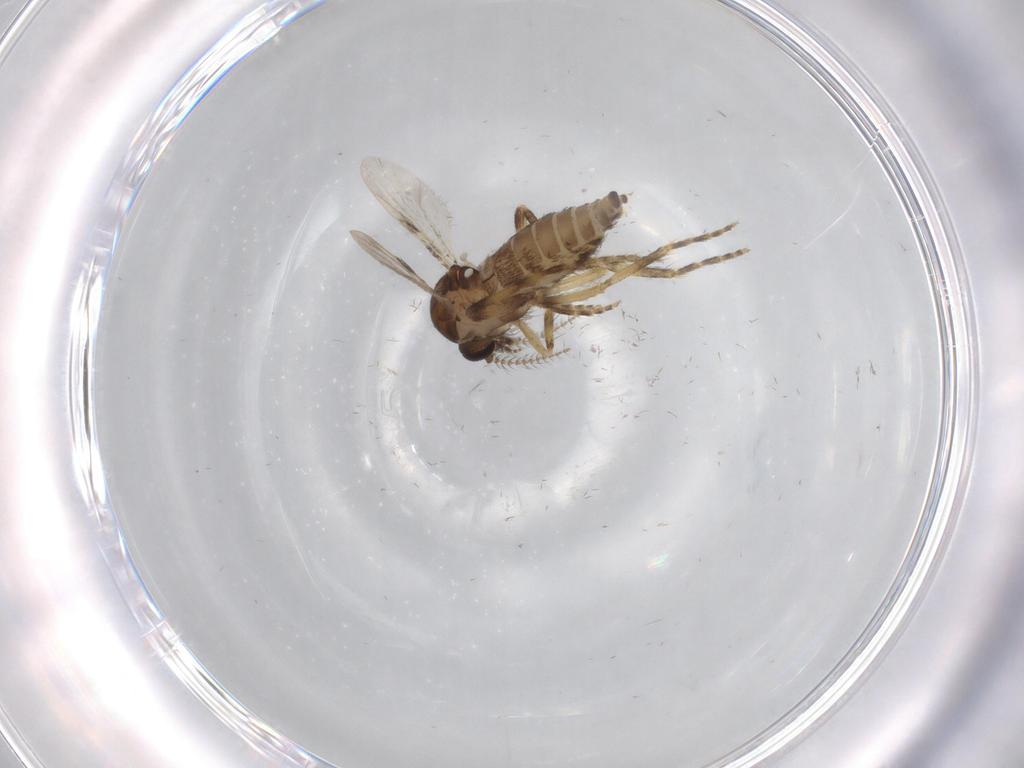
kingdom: Animalia
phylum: Arthropoda
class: Insecta
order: Diptera
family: Ceratopogonidae
